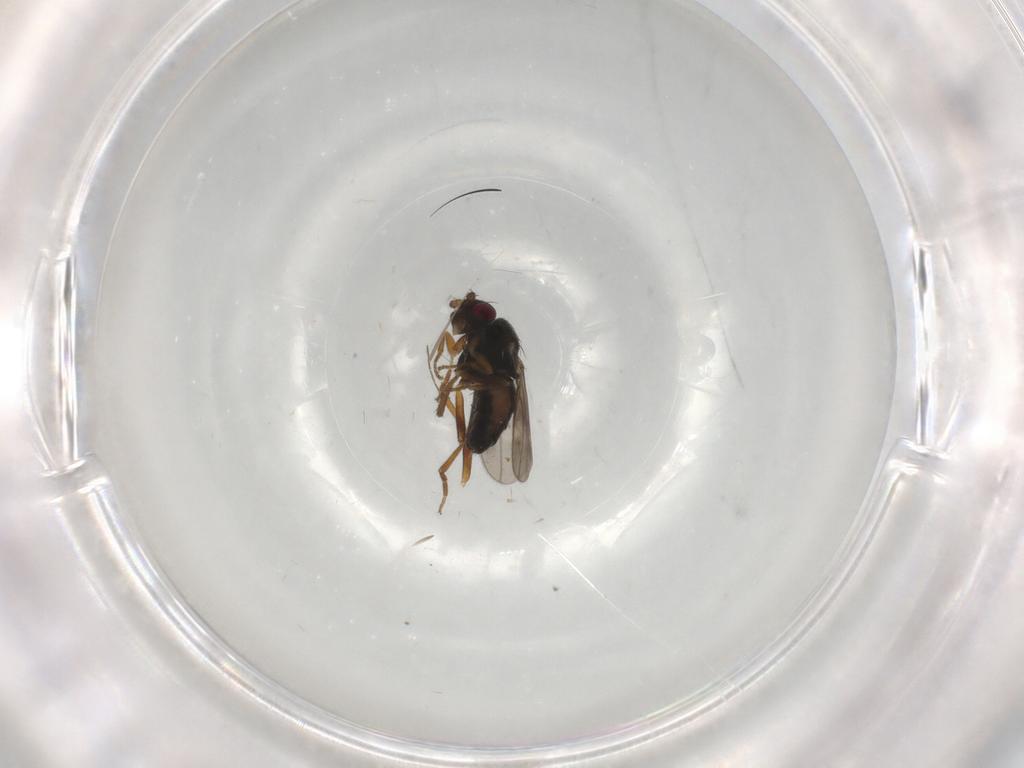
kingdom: Animalia
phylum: Arthropoda
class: Insecta
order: Diptera
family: Sphaeroceridae
